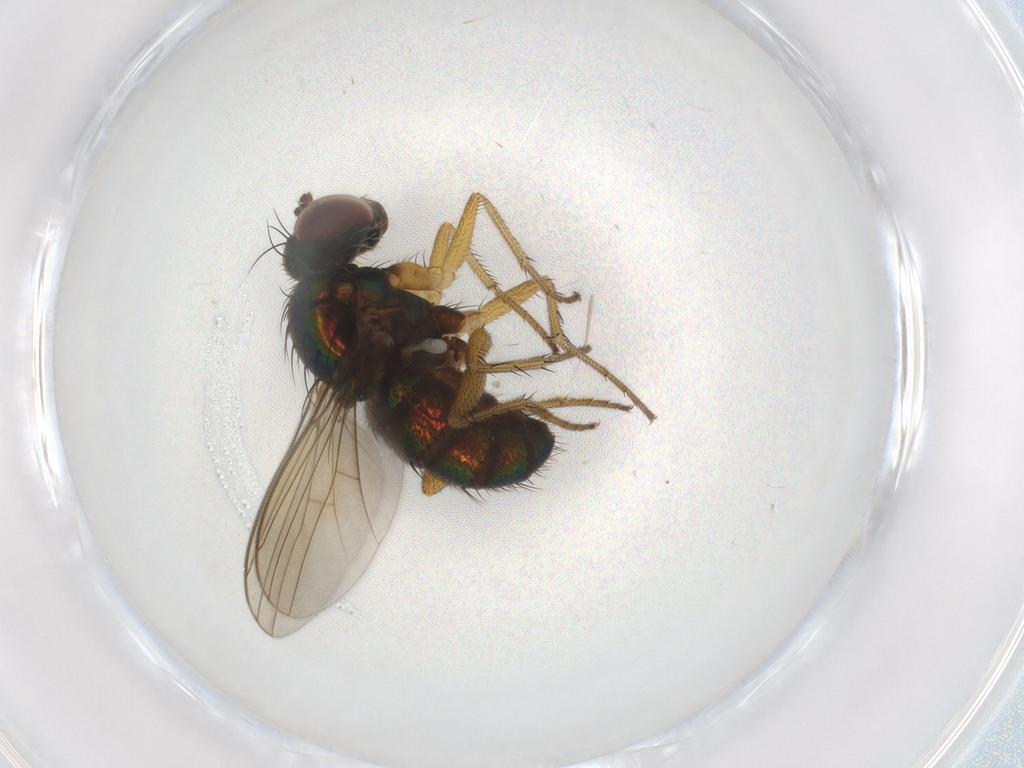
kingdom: Animalia
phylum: Arthropoda
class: Insecta
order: Diptera
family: Dolichopodidae
